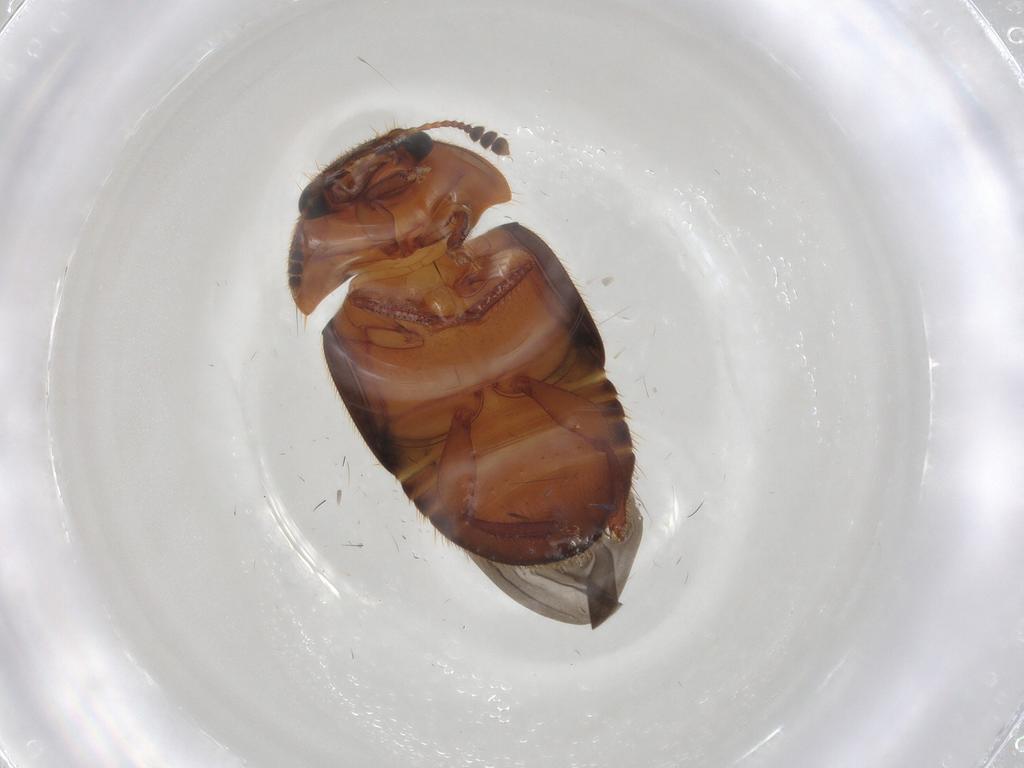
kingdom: Animalia
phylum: Arthropoda
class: Insecta
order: Coleoptera
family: Nitidulidae
